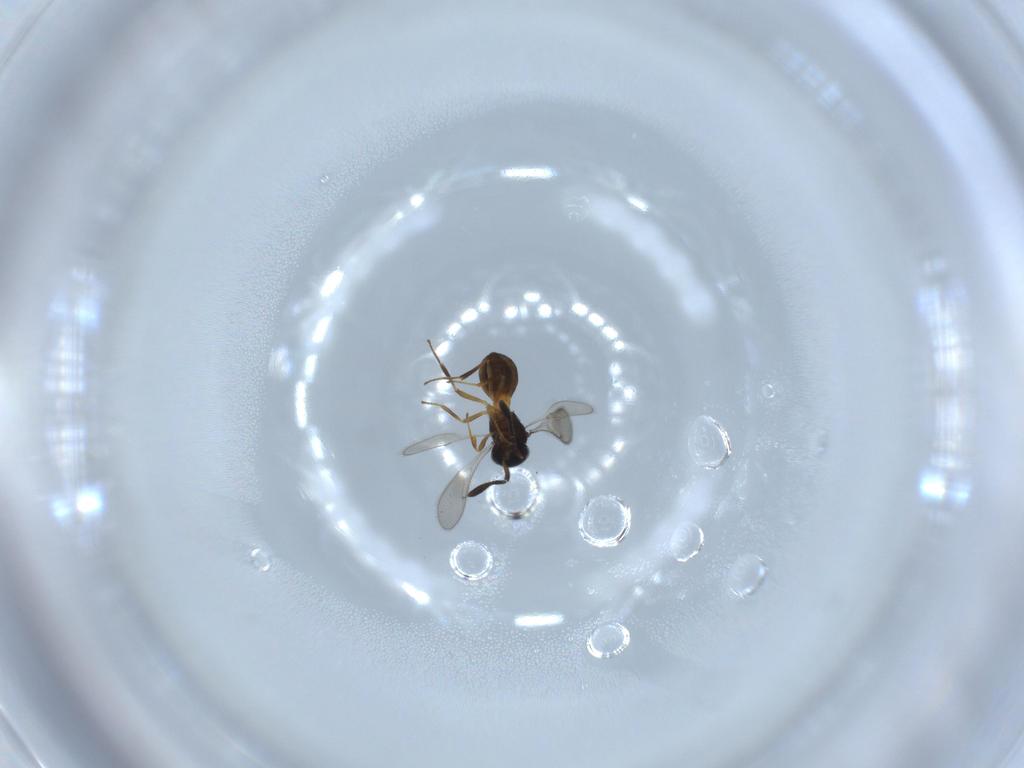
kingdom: Animalia
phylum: Arthropoda
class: Insecta
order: Hymenoptera
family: Scelionidae
